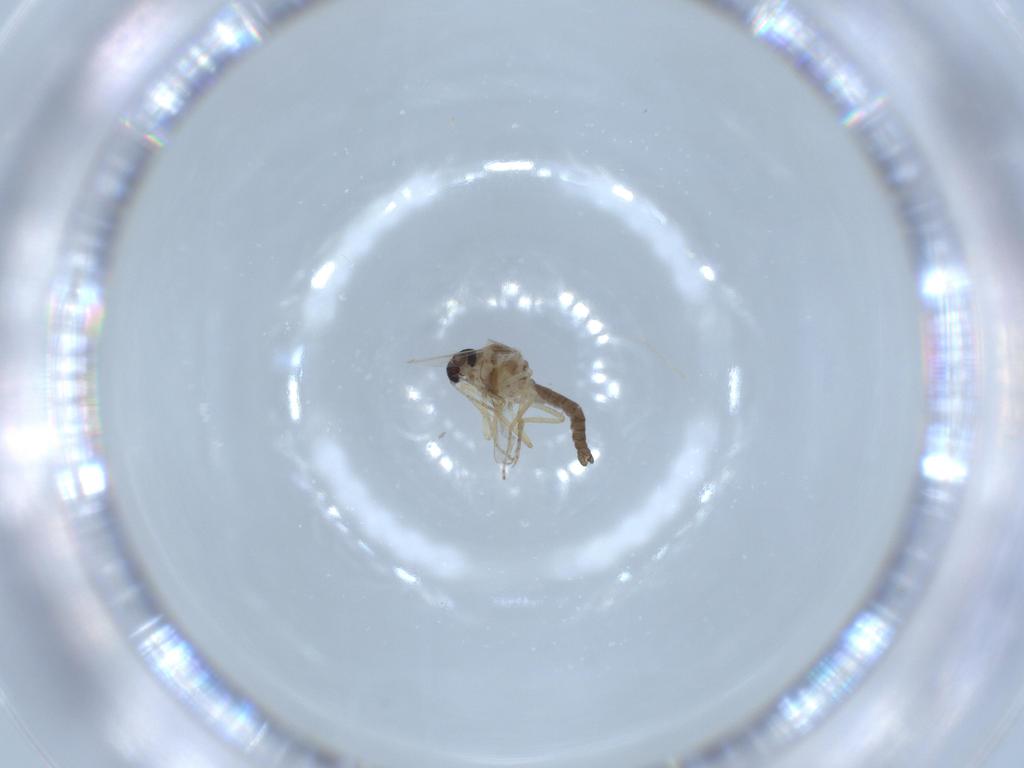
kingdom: Animalia
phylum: Arthropoda
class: Insecta
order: Diptera
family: Ceratopogonidae
